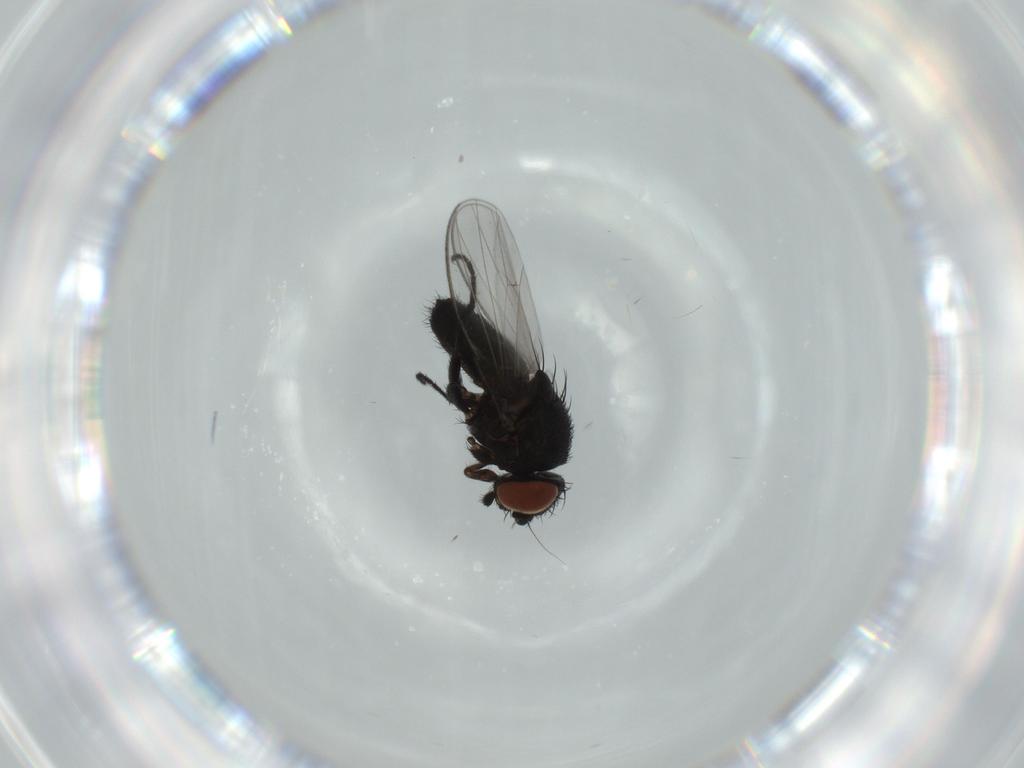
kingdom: Animalia
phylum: Arthropoda
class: Insecta
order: Diptera
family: Milichiidae
